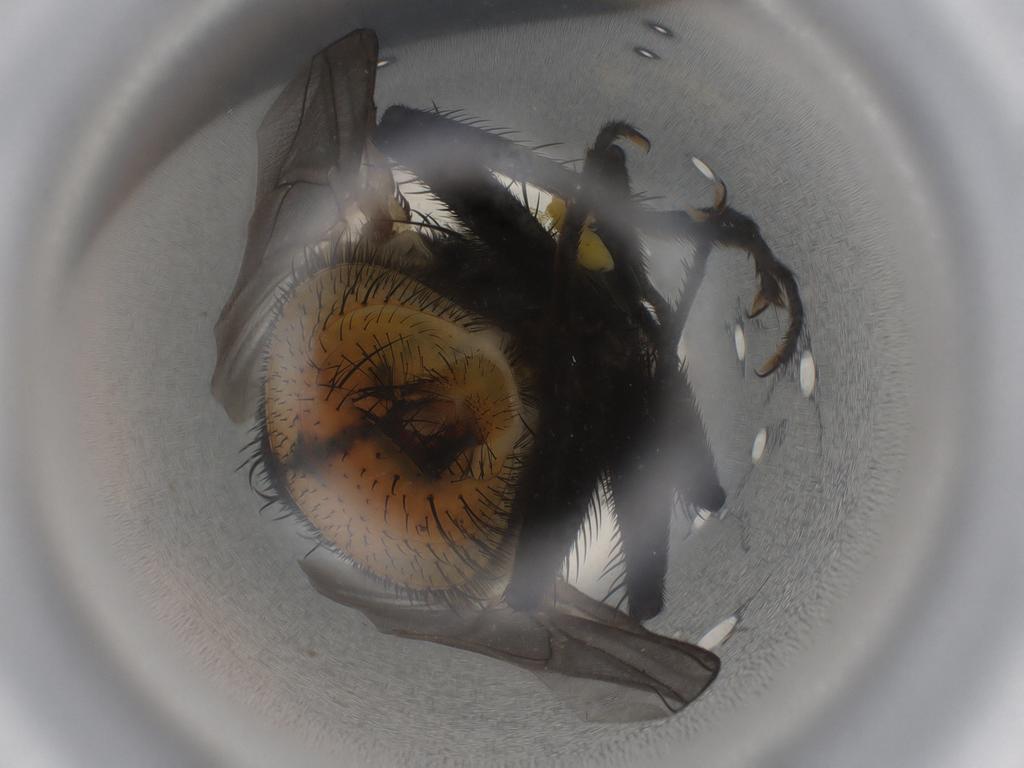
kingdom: Animalia
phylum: Arthropoda
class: Insecta
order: Diptera
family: Muscidae
